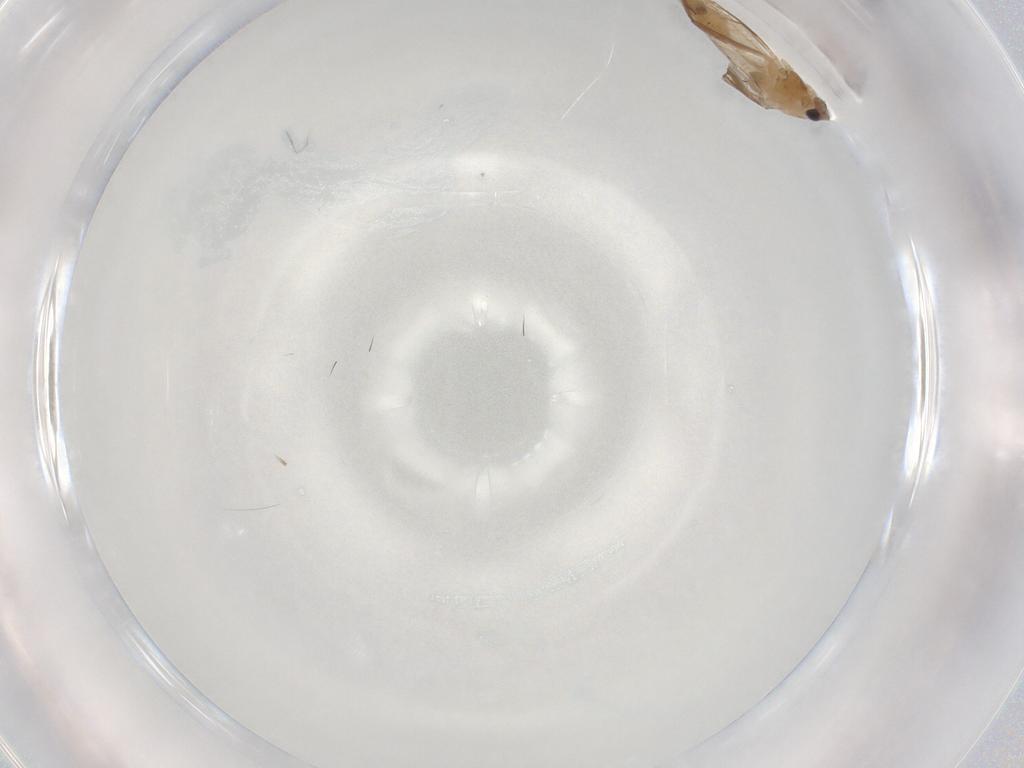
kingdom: Animalia
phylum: Arthropoda
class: Insecta
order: Diptera
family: Chironomidae
